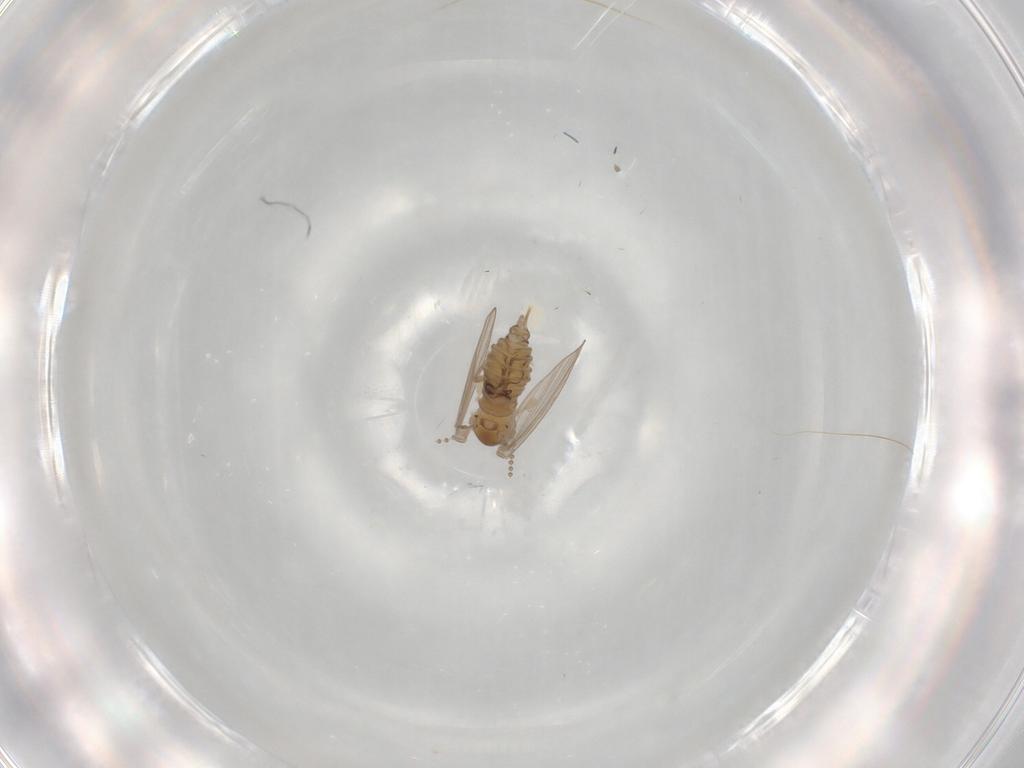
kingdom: Animalia
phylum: Arthropoda
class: Insecta
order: Diptera
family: Psychodidae
